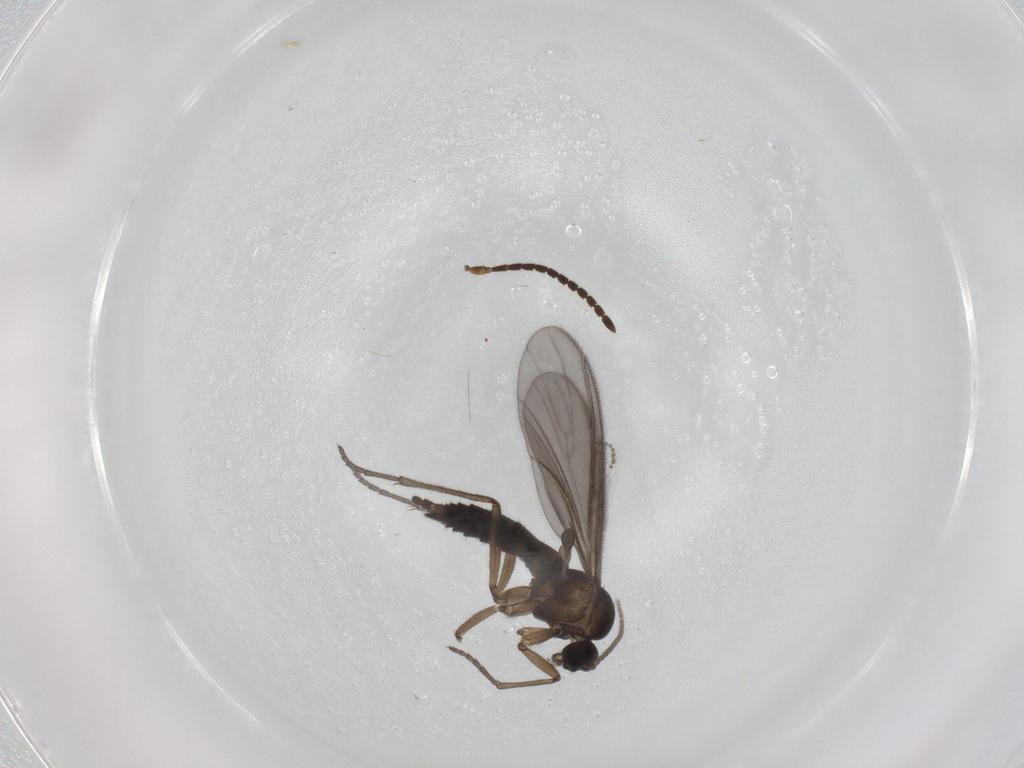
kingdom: Animalia
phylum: Arthropoda
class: Insecta
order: Diptera
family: Sciaridae
